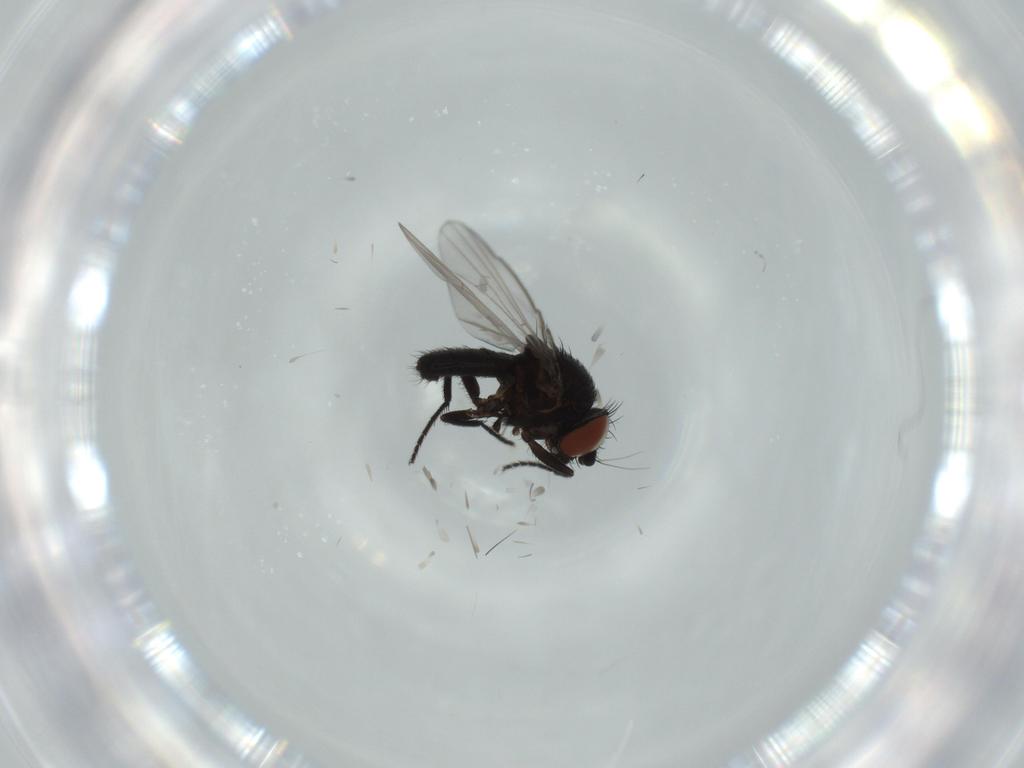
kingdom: Animalia
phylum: Arthropoda
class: Insecta
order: Diptera
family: Milichiidae
